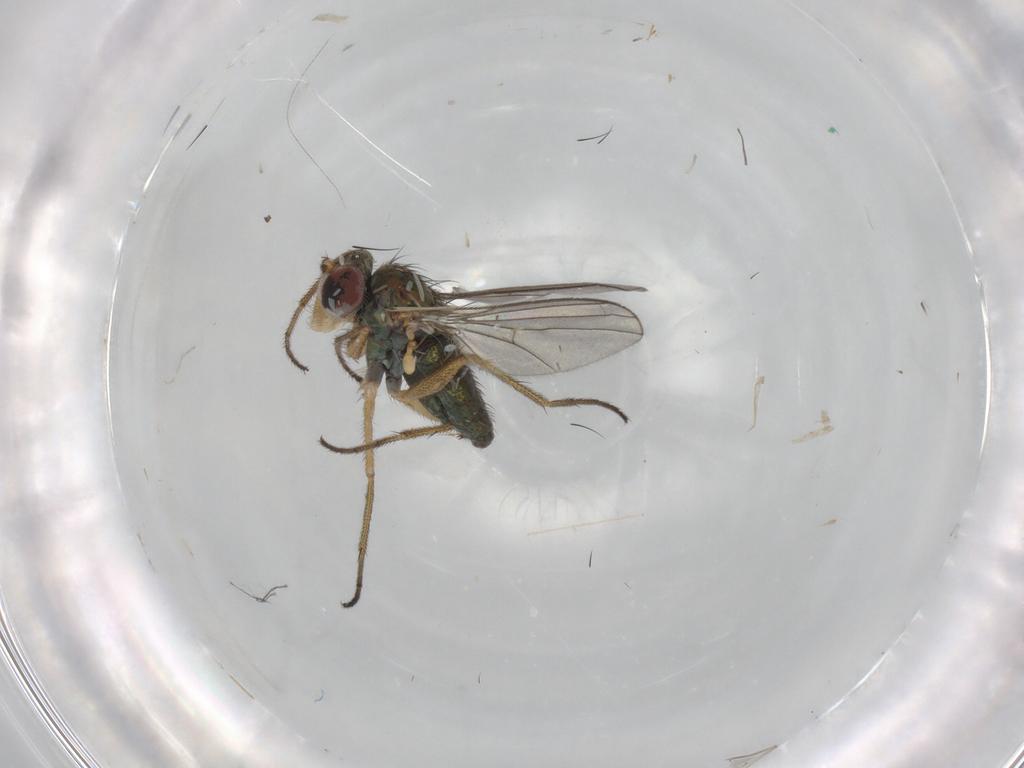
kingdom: Animalia
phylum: Arthropoda
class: Insecta
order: Diptera
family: Dolichopodidae
